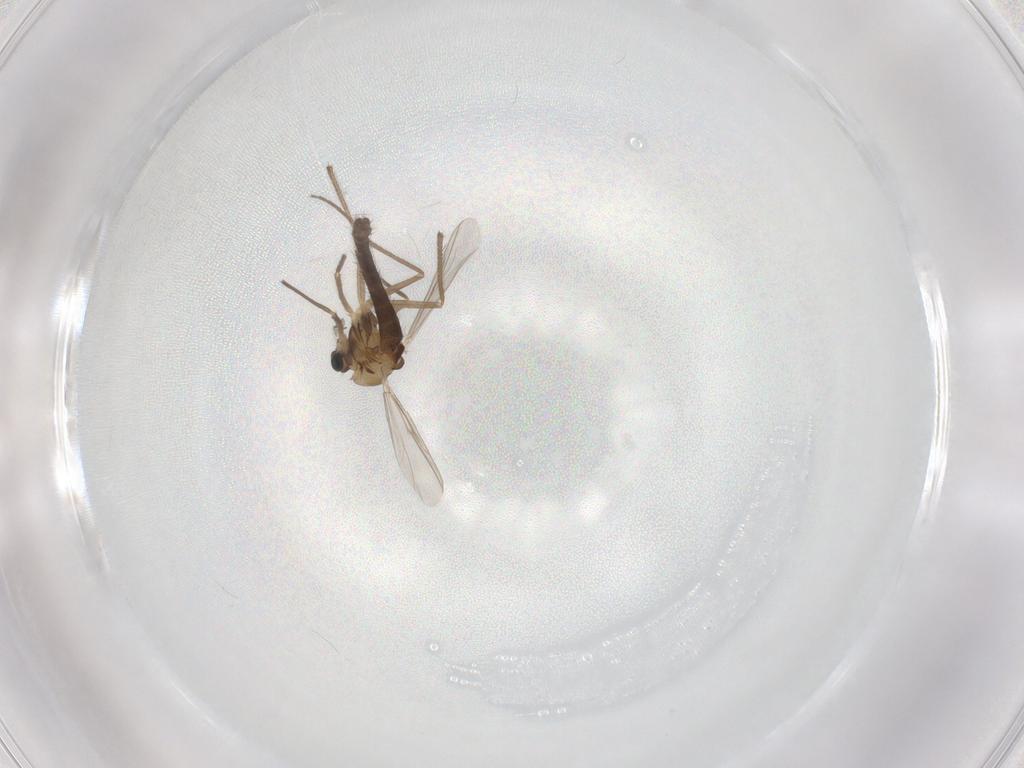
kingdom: Animalia
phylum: Arthropoda
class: Insecta
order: Diptera
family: Chironomidae
